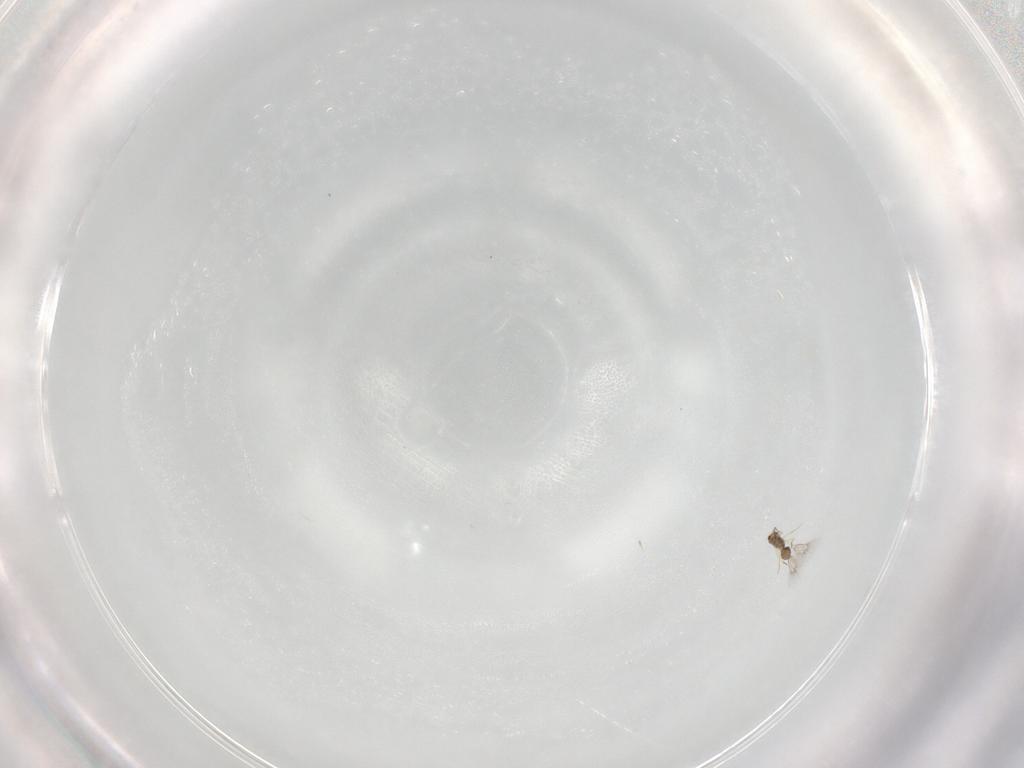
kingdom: Animalia
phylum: Arthropoda
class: Insecta
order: Hymenoptera
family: Mymarommatidae
